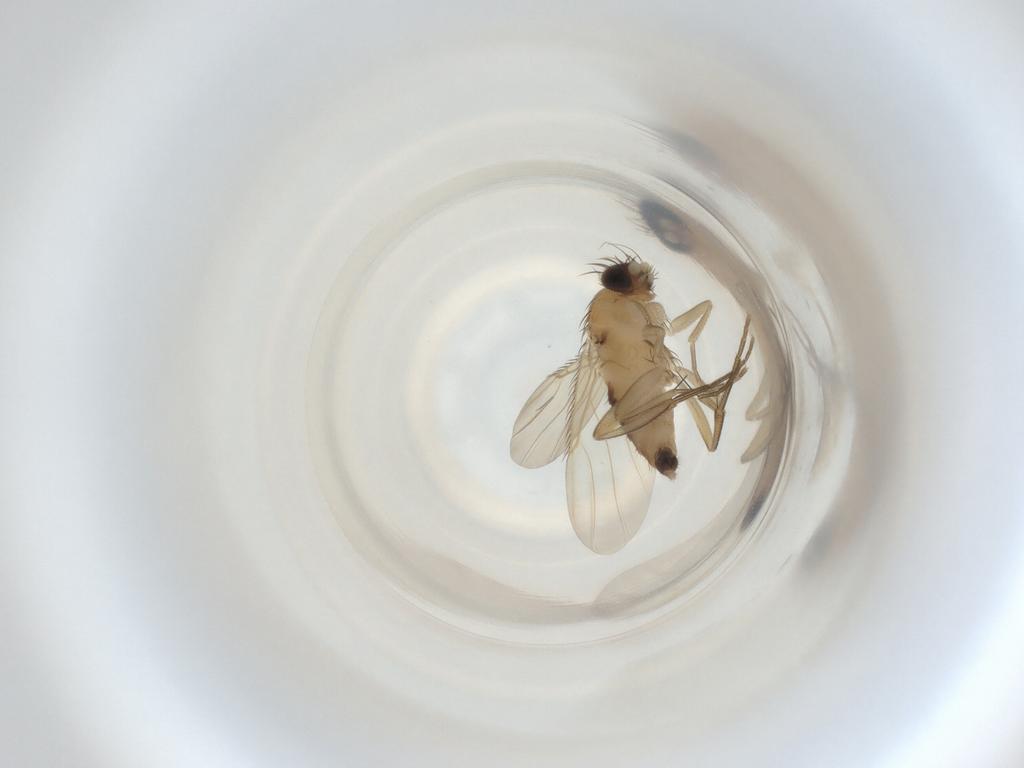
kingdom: Animalia
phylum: Arthropoda
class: Insecta
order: Diptera
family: Phoridae
